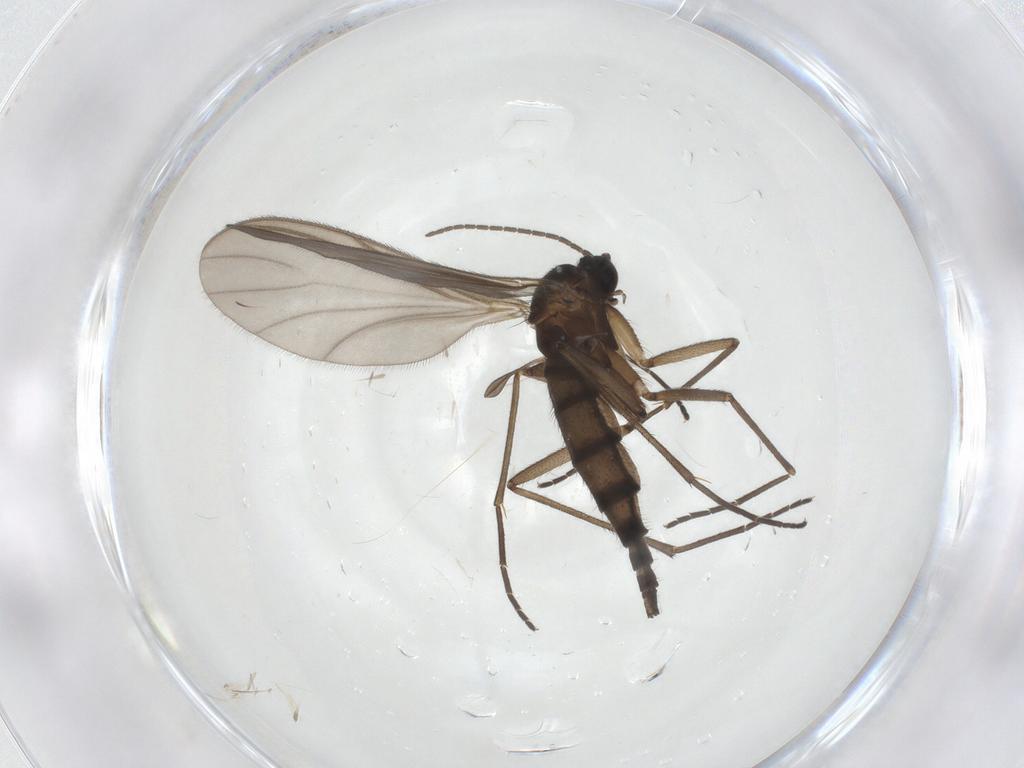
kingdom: Animalia
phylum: Arthropoda
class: Insecta
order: Diptera
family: Sciaridae
